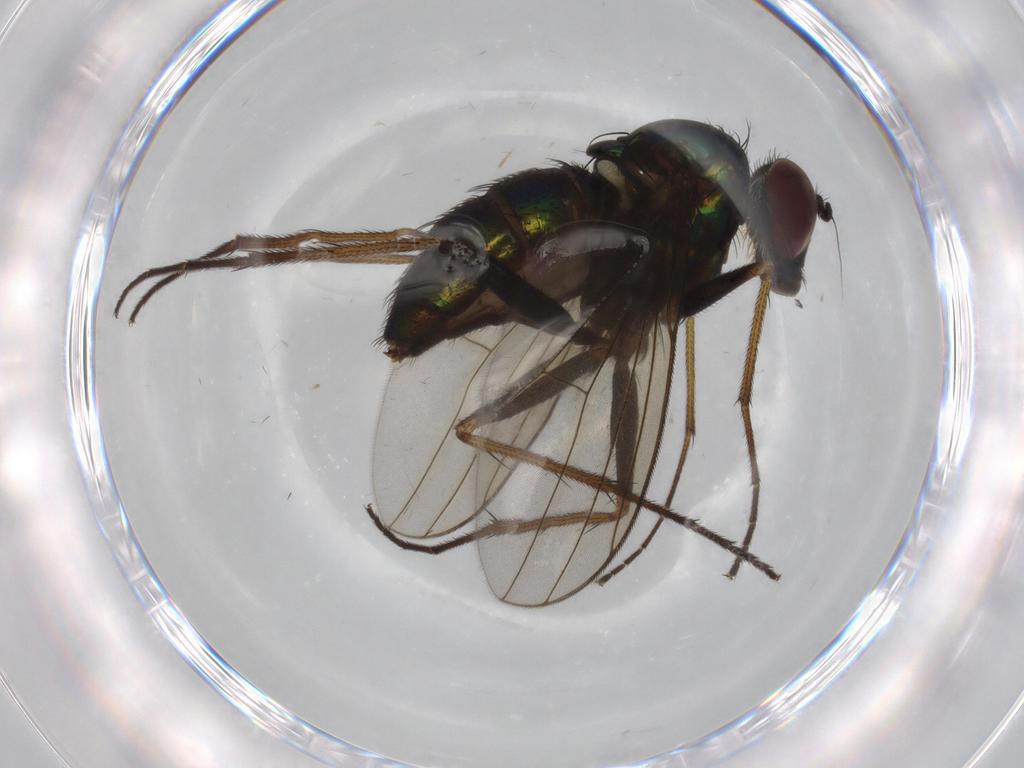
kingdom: Animalia
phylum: Arthropoda
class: Insecta
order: Diptera
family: Dolichopodidae
